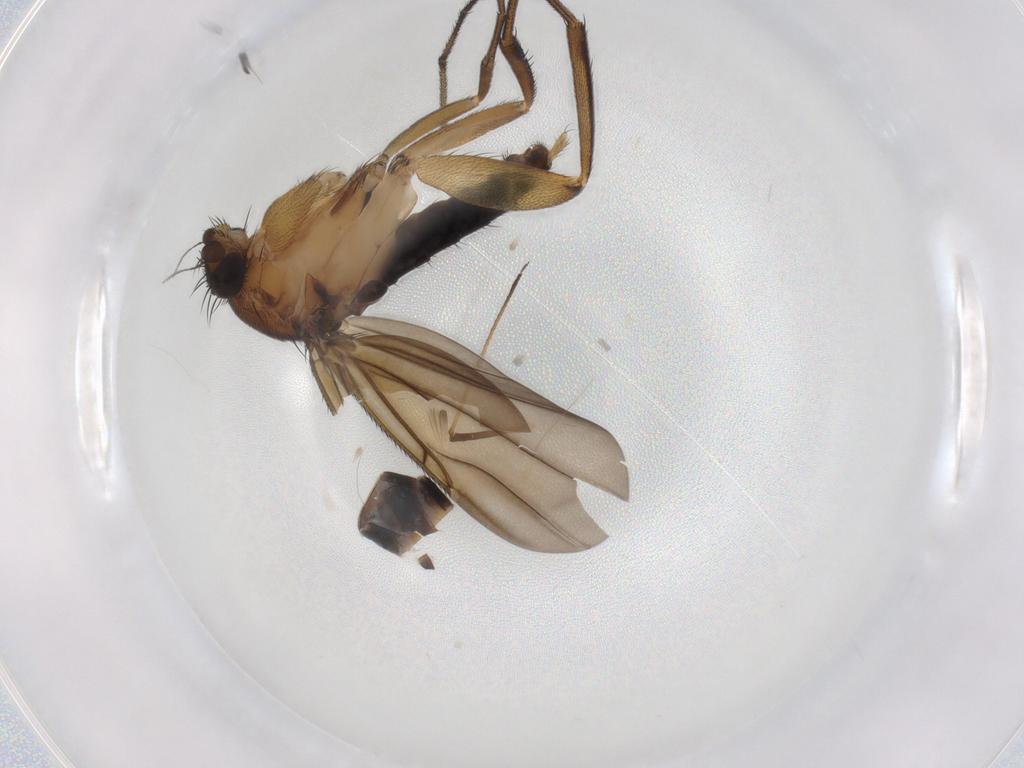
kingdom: Animalia
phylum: Arthropoda
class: Insecta
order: Diptera
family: Phoridae
